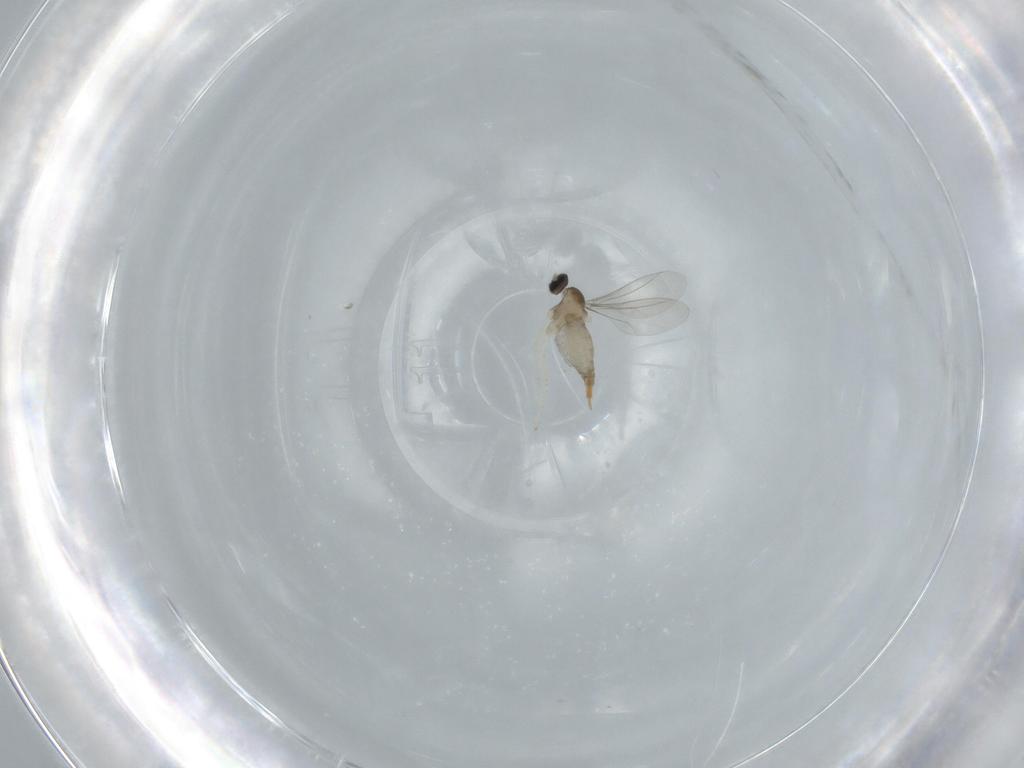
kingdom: Animalia
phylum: Arthropoda
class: Insecta
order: Diptera
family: Cecidomyiidae
